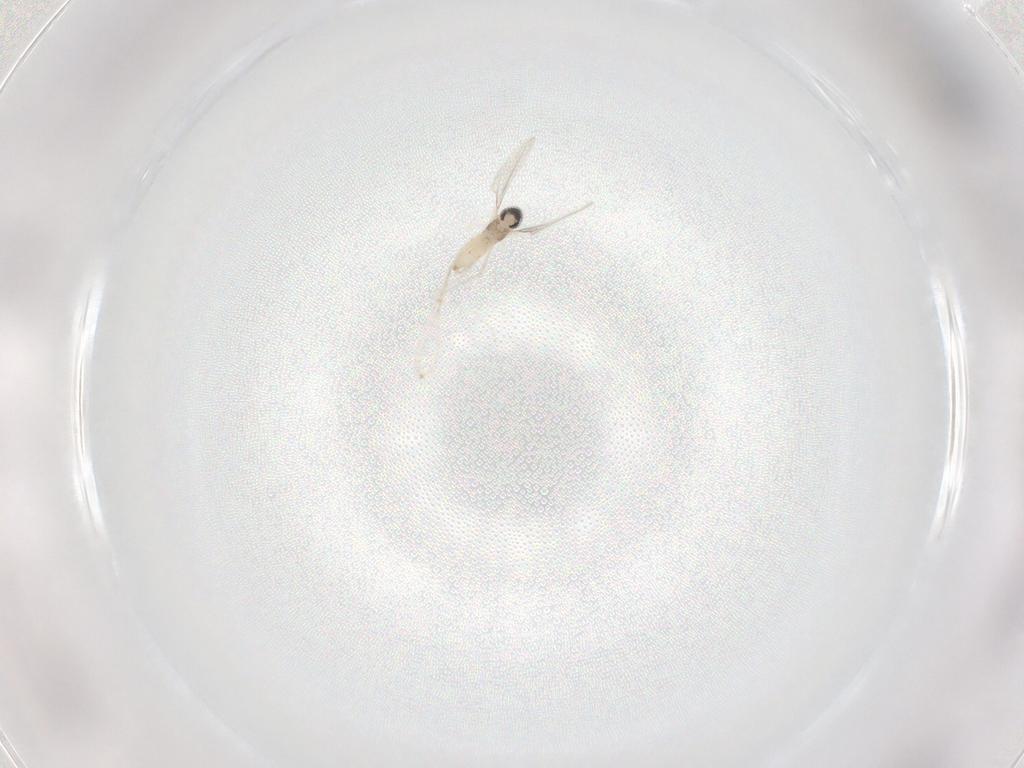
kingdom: Animalia
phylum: Arthropoda
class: Insecta
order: Diptera
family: Cecidomyiidae
